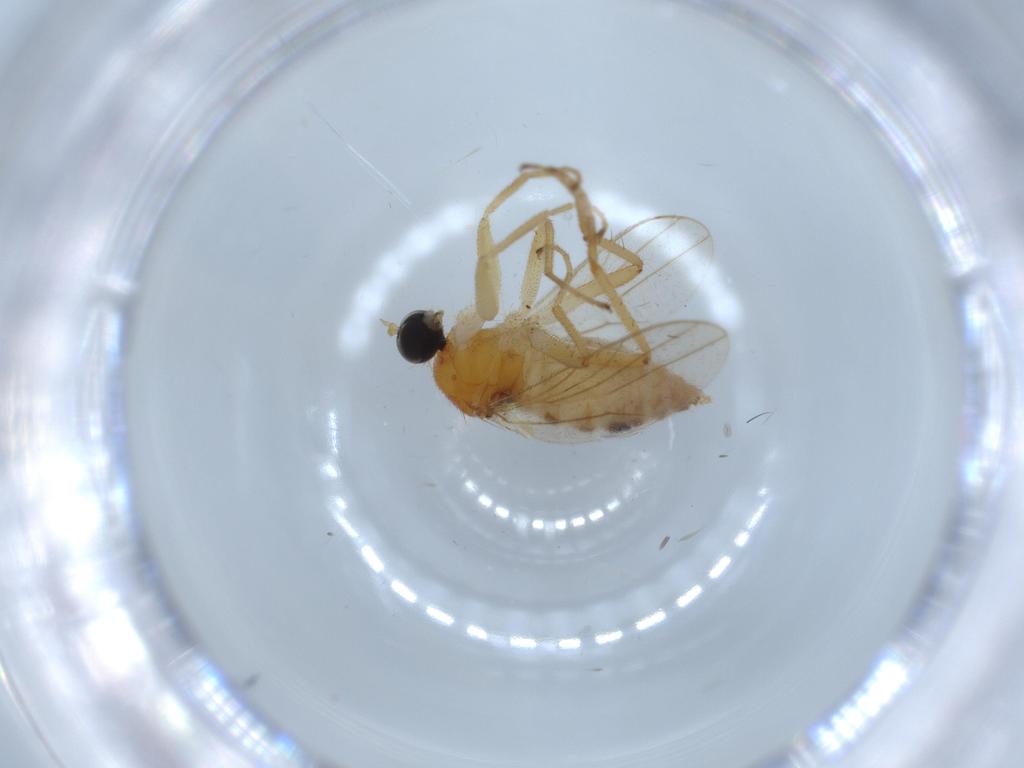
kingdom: Animalia
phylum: Arthropoda
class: Insecta
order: Diptera
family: Hybotidae
